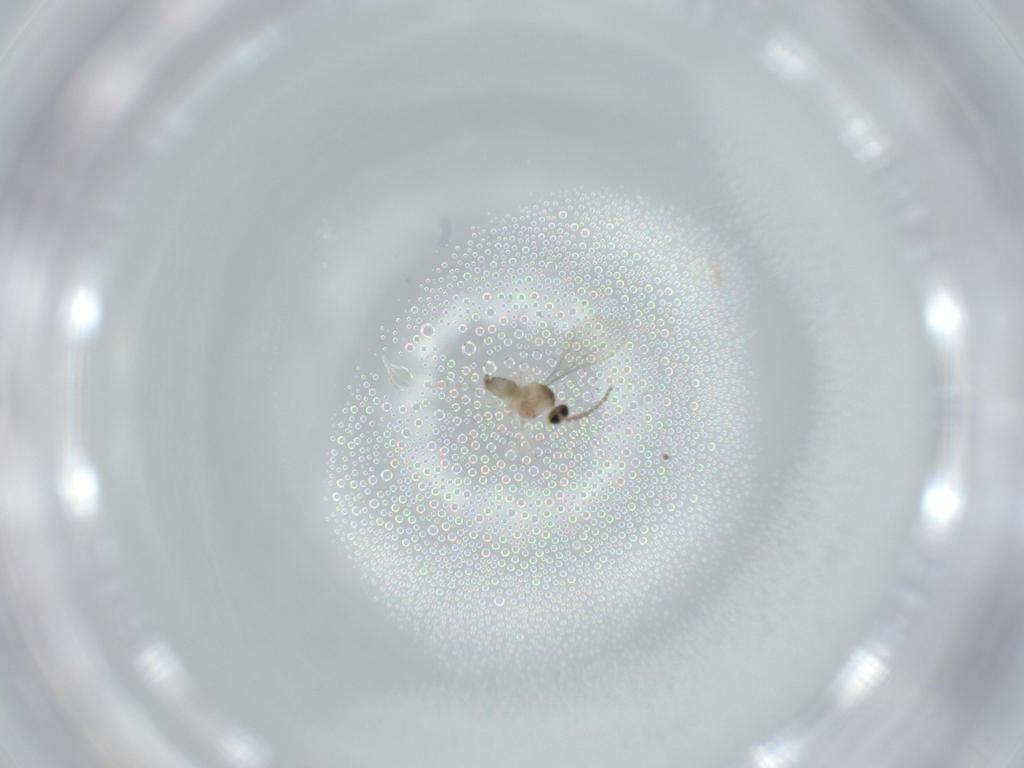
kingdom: Animalia
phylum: Arthropoda
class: Insecta
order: Diptera
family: Cecidomyiidae
